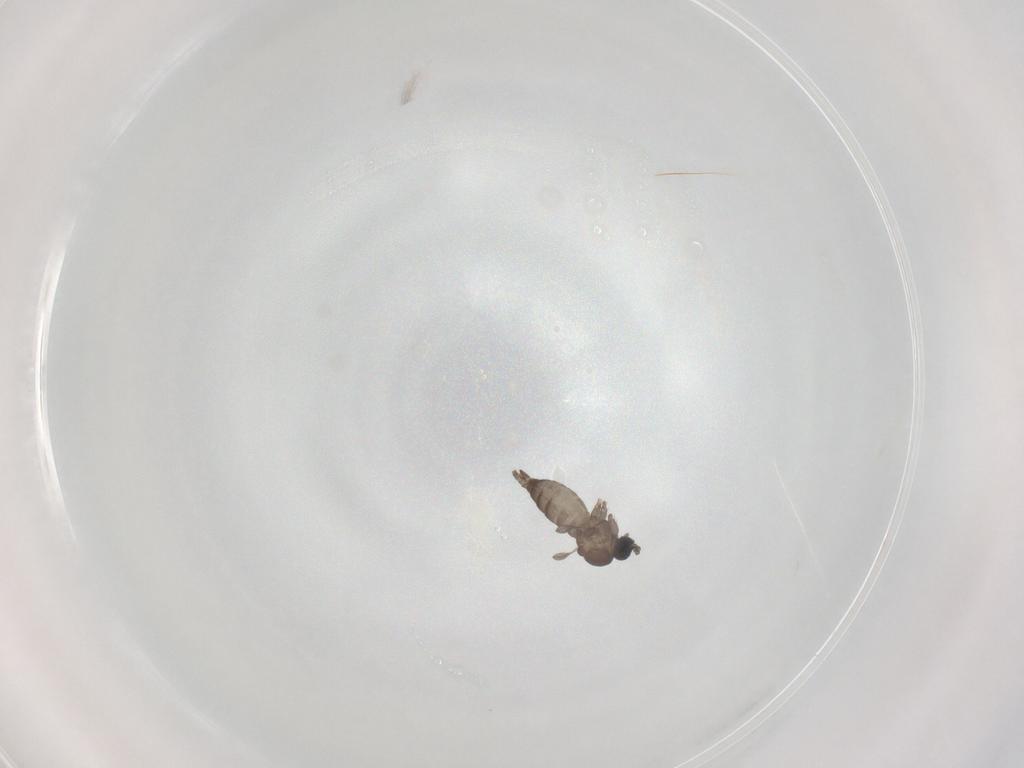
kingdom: Animalia
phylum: Arthropoda
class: Insecta
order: Diptera
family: Sciaridae
